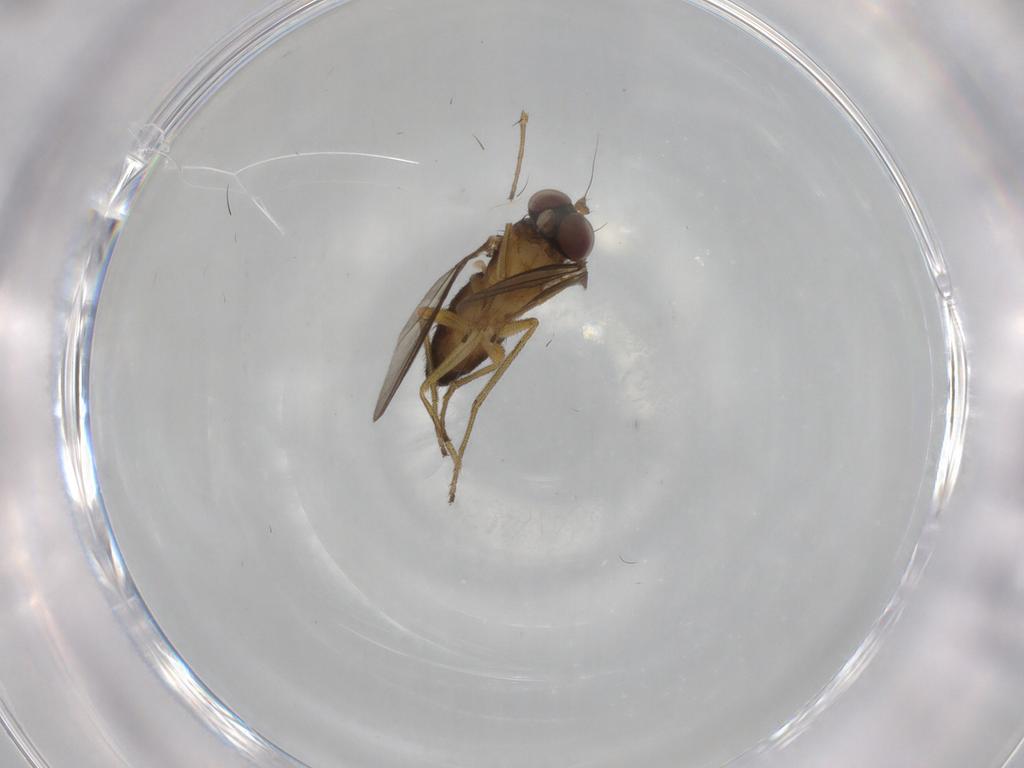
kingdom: Animalia
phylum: Arthropoda
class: Insecta
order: Diptera
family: Dolichopodidae
